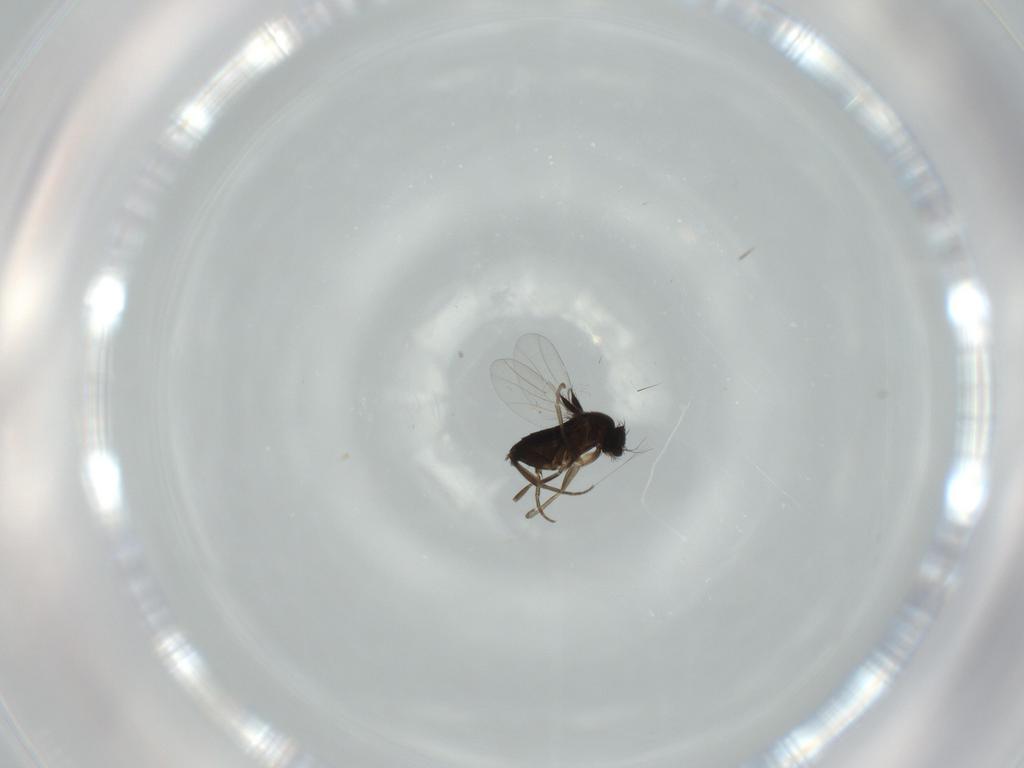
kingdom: Animalia
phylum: Arthropoda
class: Insecta
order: Diptera
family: Phoridae
